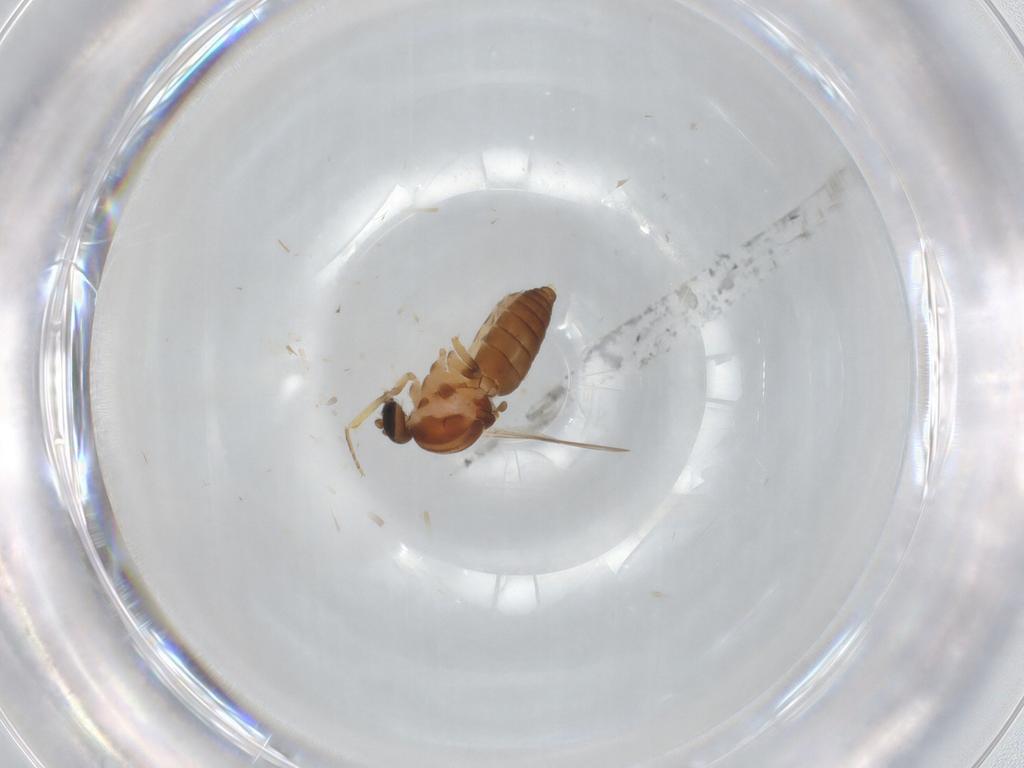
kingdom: Animalia
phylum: Arthropoda
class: Insecta
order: Diptera
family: Ceratopogonidae
